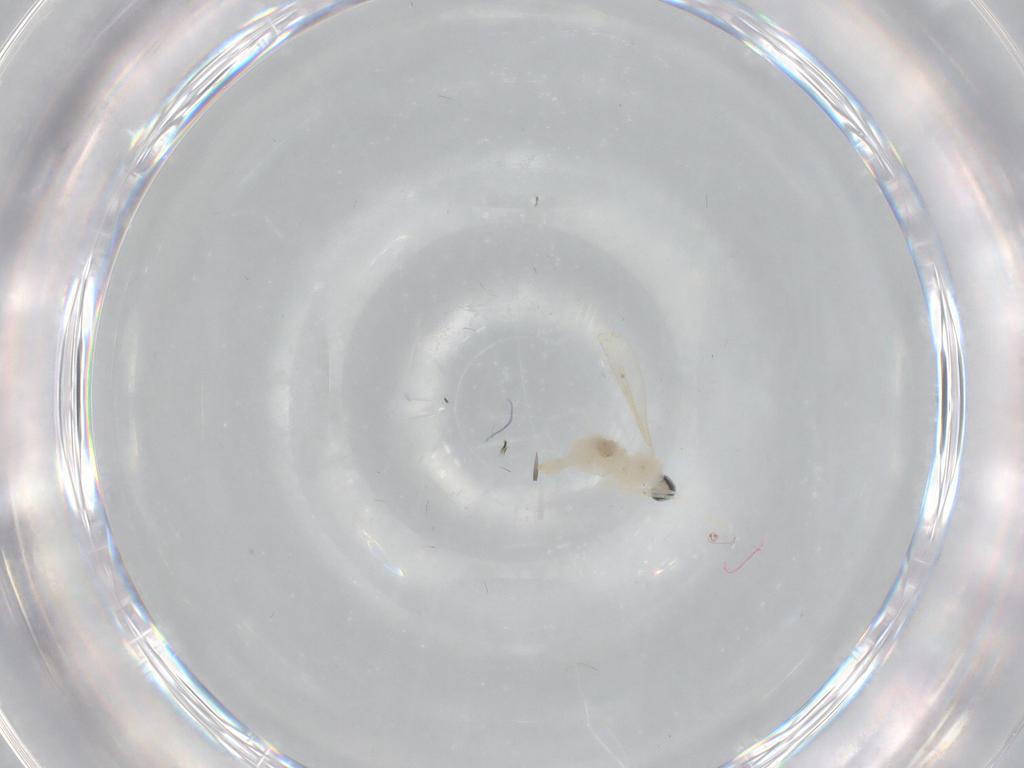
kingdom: Animalia
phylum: Arthropoda
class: Insecta
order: Diptera
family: Cecidomyiidae
